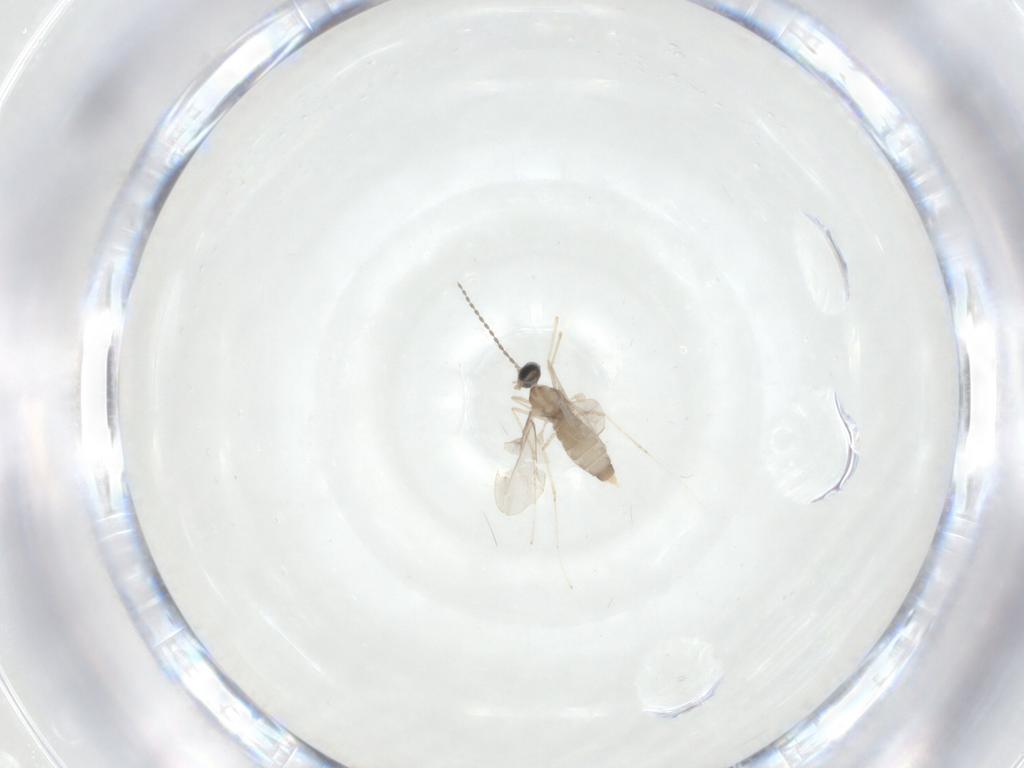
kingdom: Animalia
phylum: Arthropoda
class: Insecta
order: Diptera
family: Cecidomyiidae
